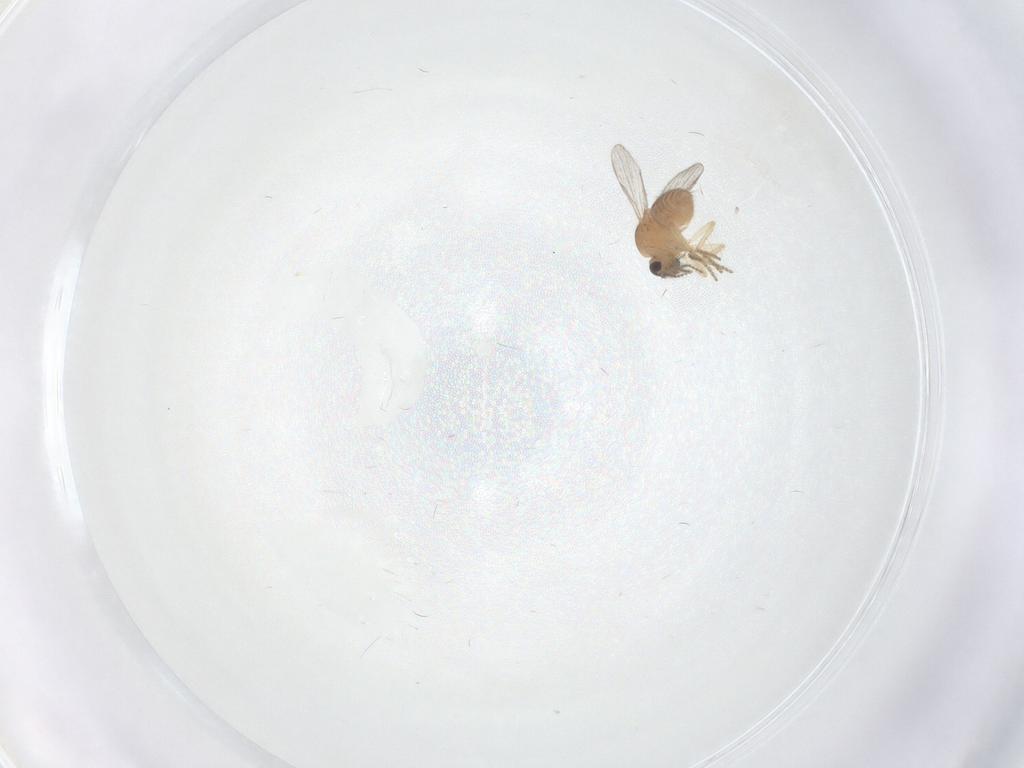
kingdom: Animalia
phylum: Arthropoda
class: Insecta
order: Diptera
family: Ceratopogonidae
